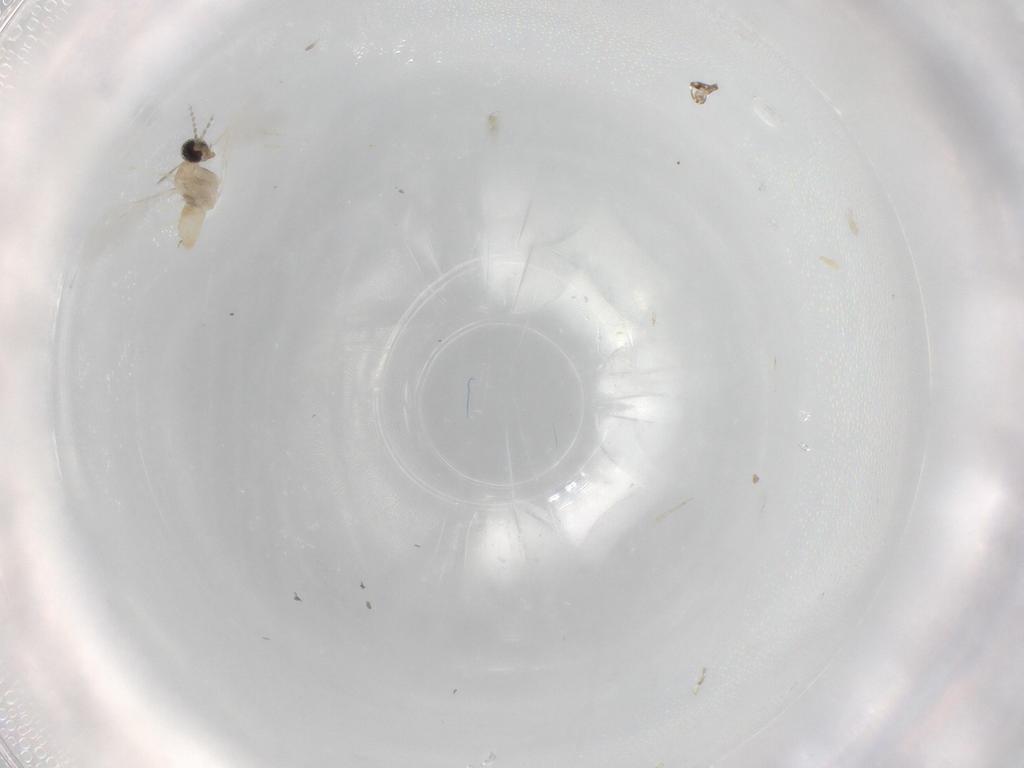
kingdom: Animalia
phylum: Arthropoda
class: Insecta
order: Diptera
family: Cecidomyiidae
